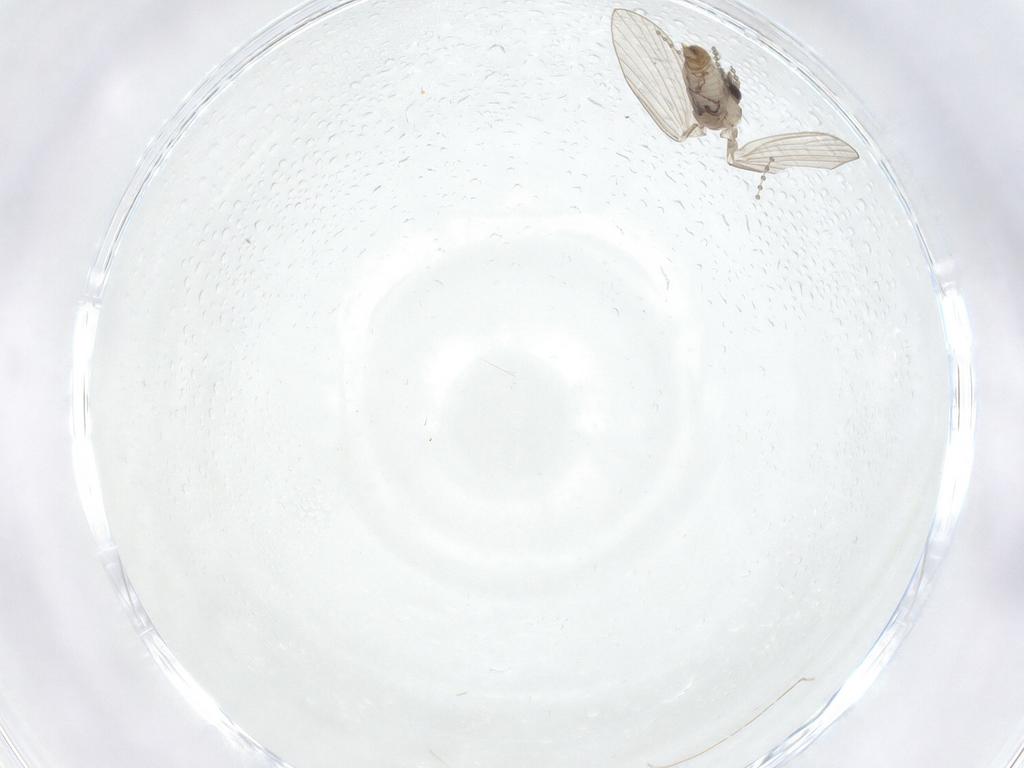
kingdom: Animalia
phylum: Arthropoda
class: Insecta
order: Diptera
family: Psychodidae
